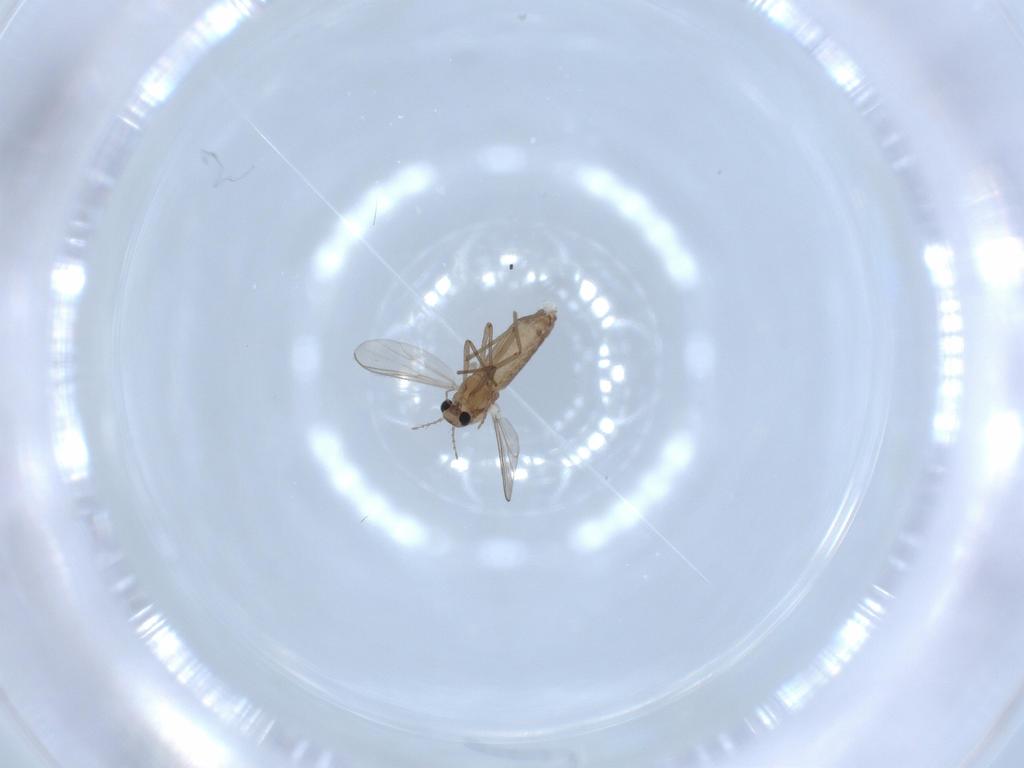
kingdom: Animalia
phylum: Arthropoda
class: Insecta
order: Diptera
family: Chironomidae
